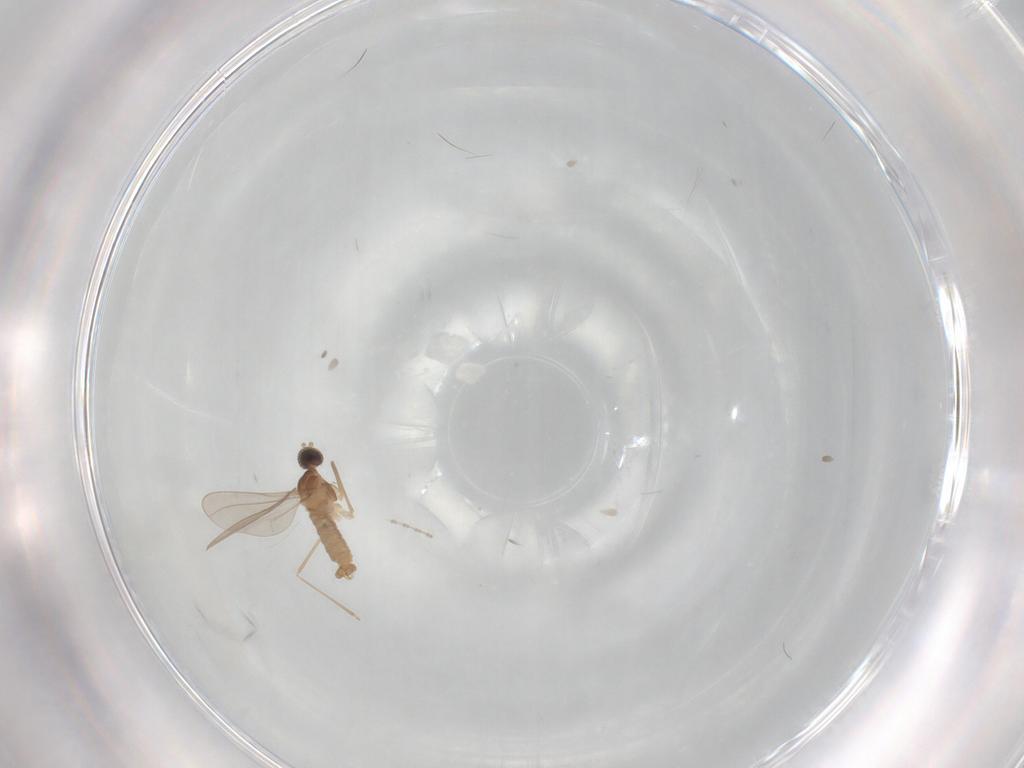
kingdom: Animalia
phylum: Arthropoda
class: Insecta
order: Diptera
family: Cecidomyiidae
